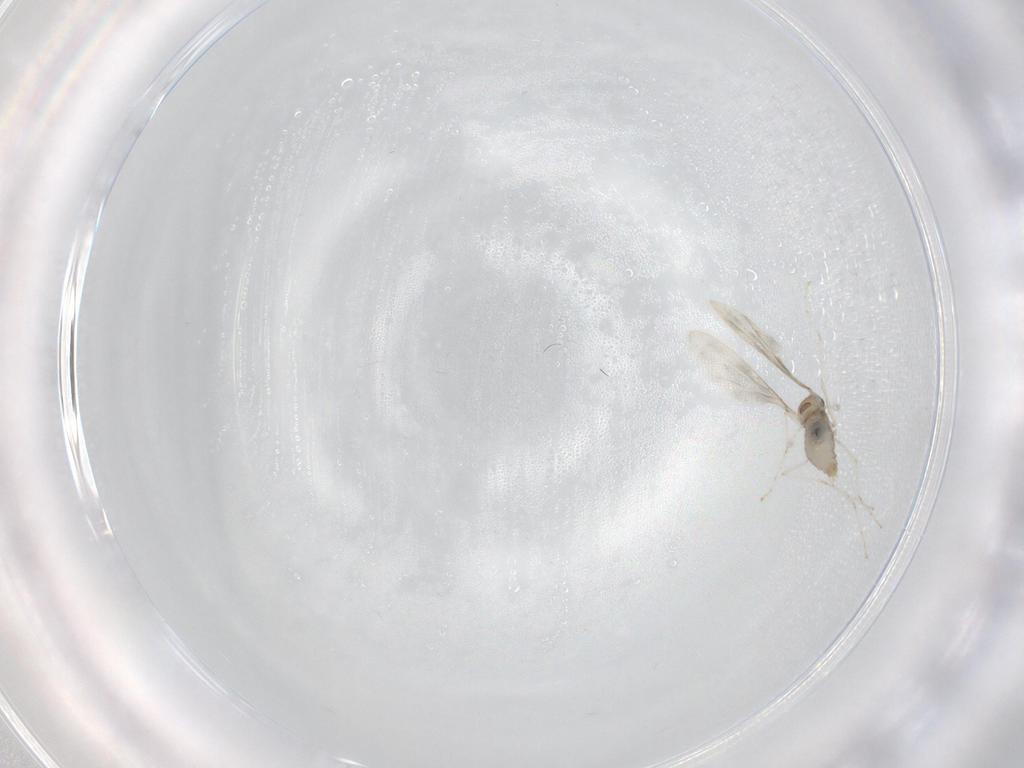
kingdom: Animalia
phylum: Arthropoda
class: Insecta
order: Diptera
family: Cecidomyiidae
